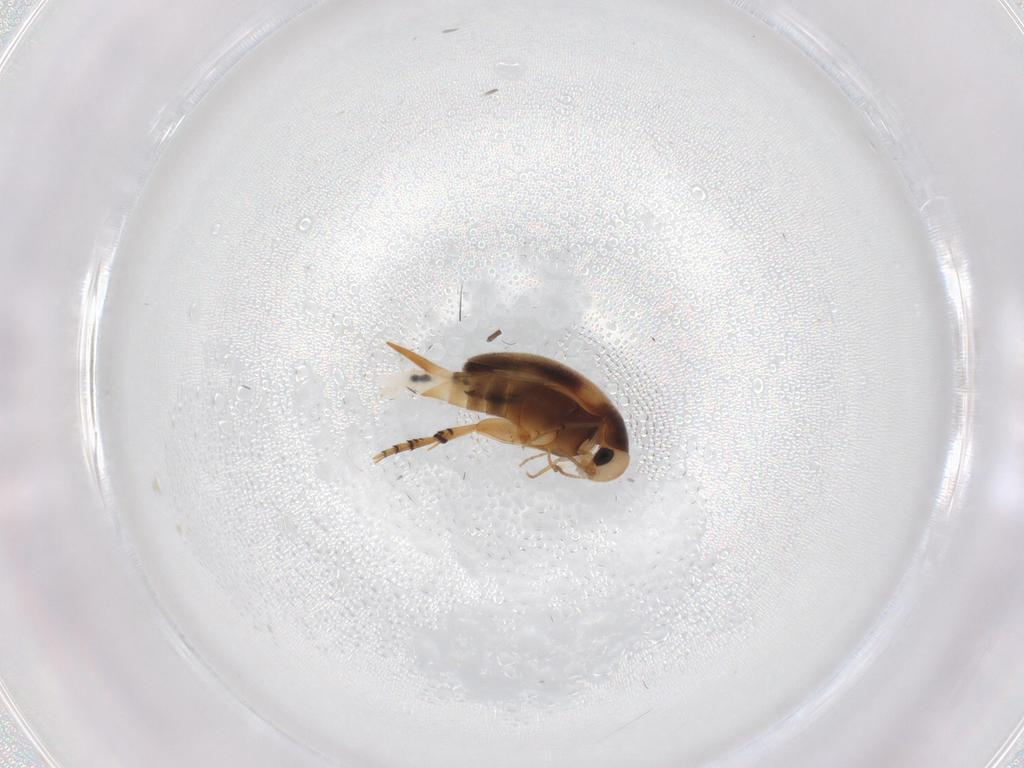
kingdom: Animalia
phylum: Arthropoda
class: Insecta
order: Coleoptera
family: Mordellidae
